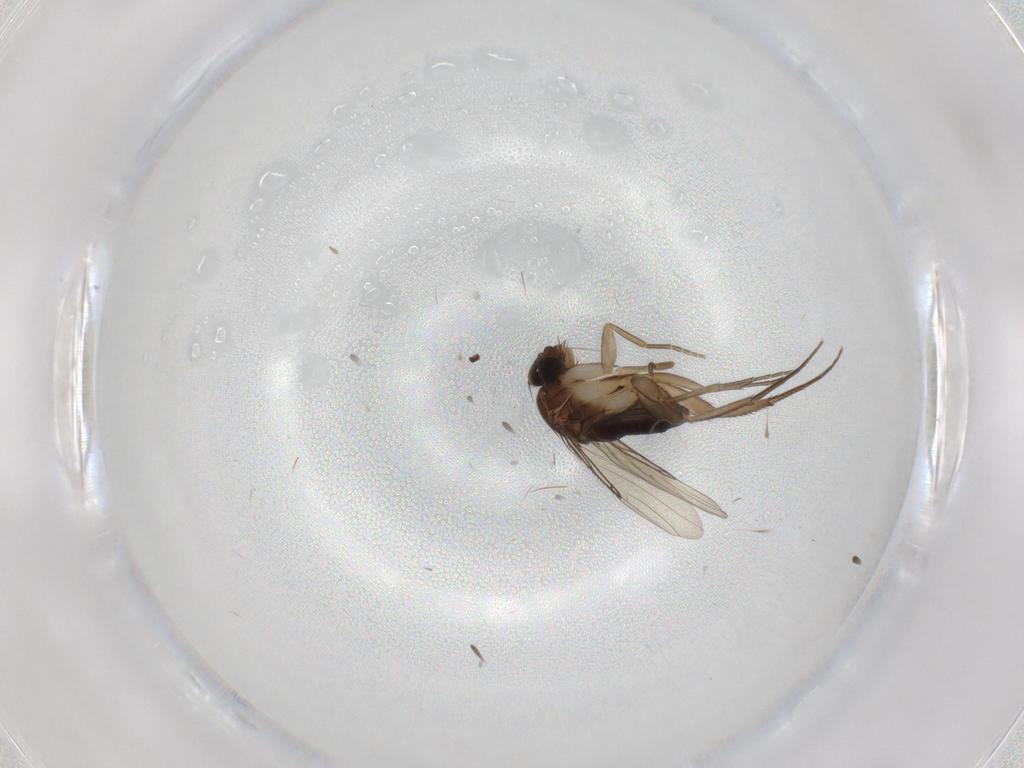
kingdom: Animalia
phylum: Arthropoda
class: Insecta
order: Diptera
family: Phoridae
